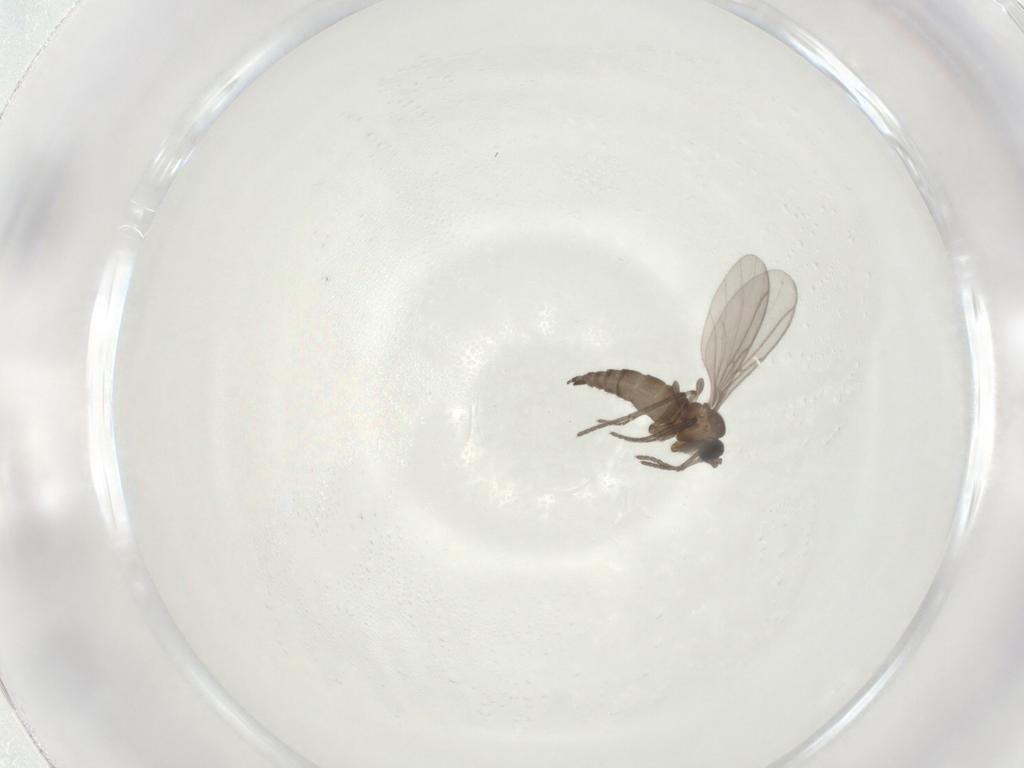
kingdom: Animalia
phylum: Arthropoda
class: Insecta
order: Diptera
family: Sciaridae
